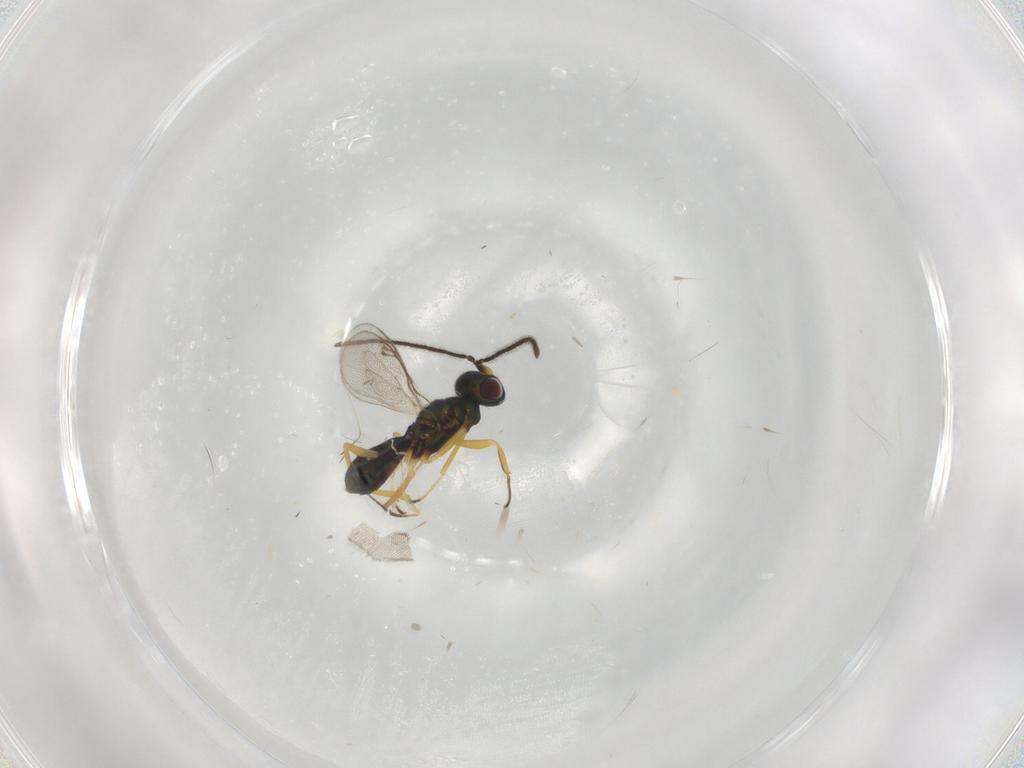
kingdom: Animalia
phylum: Arthropoda
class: Insecta
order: Hymenoptera
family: Eupelmidae
